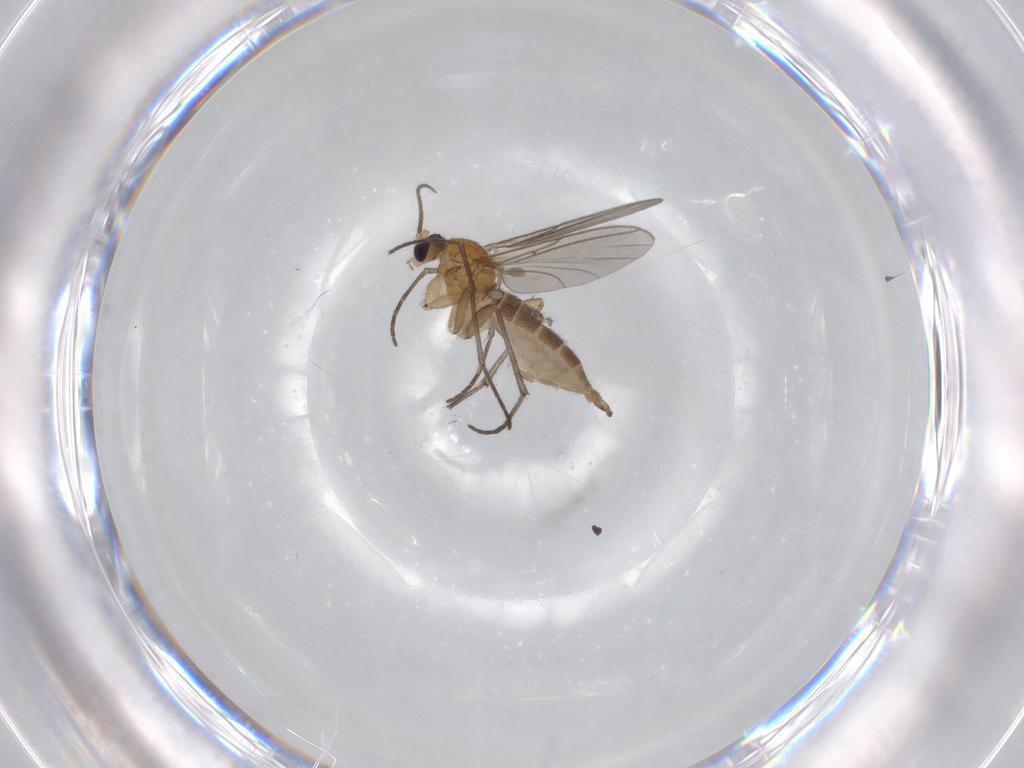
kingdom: Animalia
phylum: Arthropoda
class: Insecta
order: Diptera
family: Sciaridae
